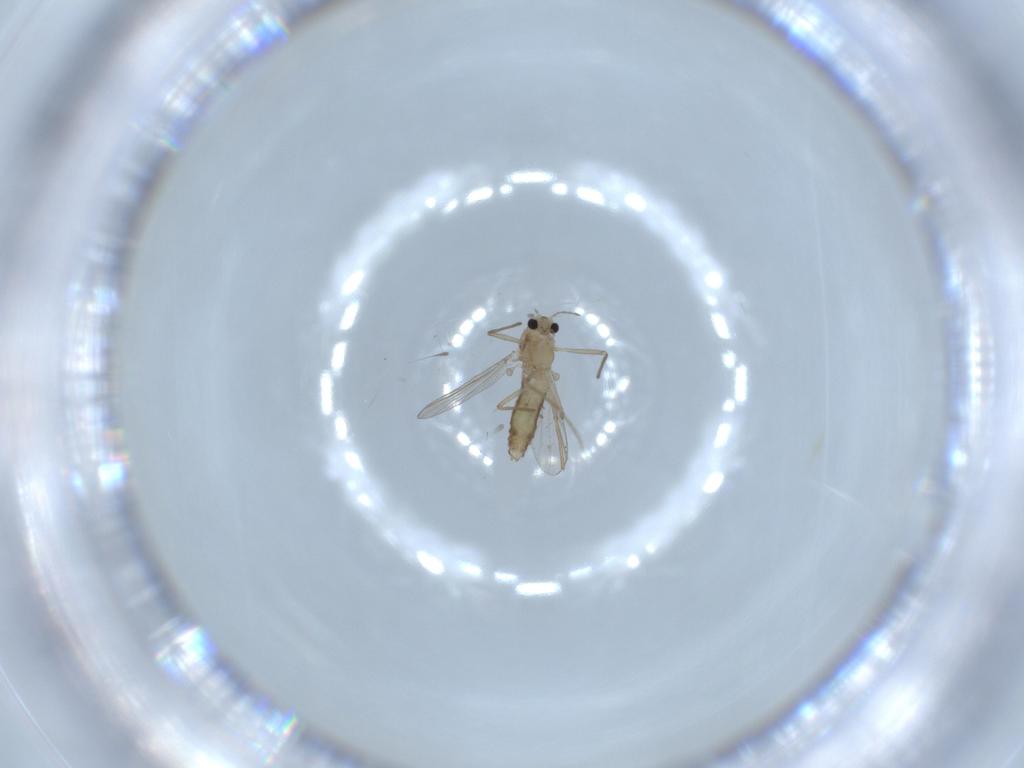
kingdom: Animalia
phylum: Arthropoda
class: Insecta
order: Diptera
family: Chironomidae
